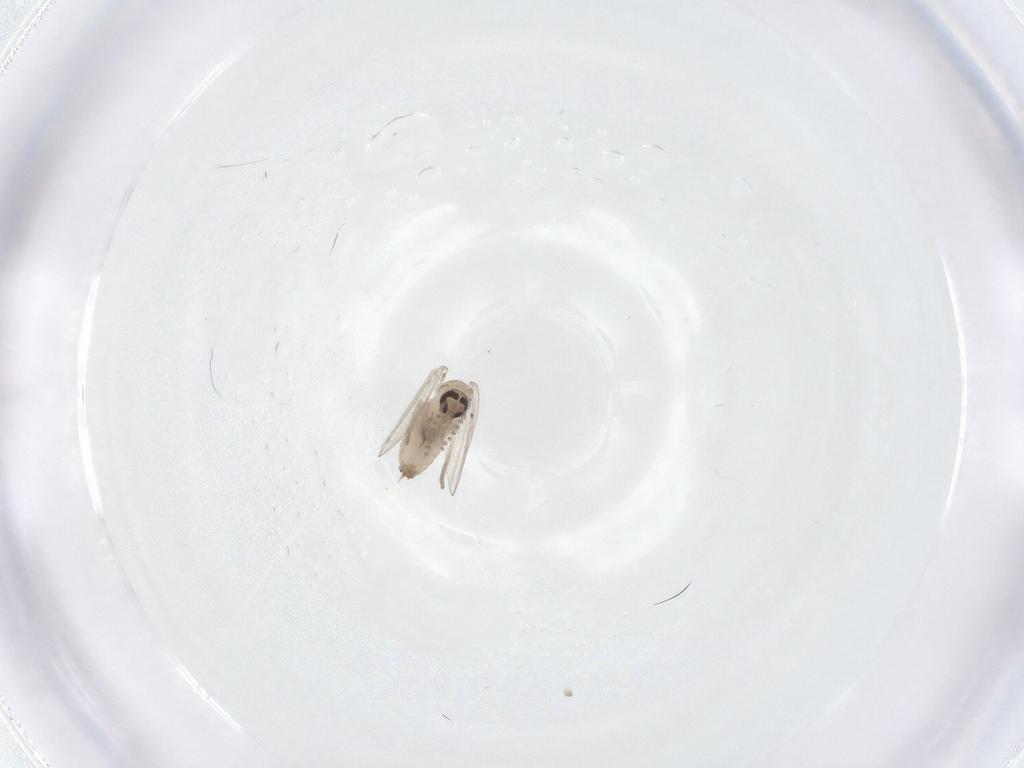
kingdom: Animalia
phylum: Arthropoda
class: Insecta
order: Diptera
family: Psychodidae
